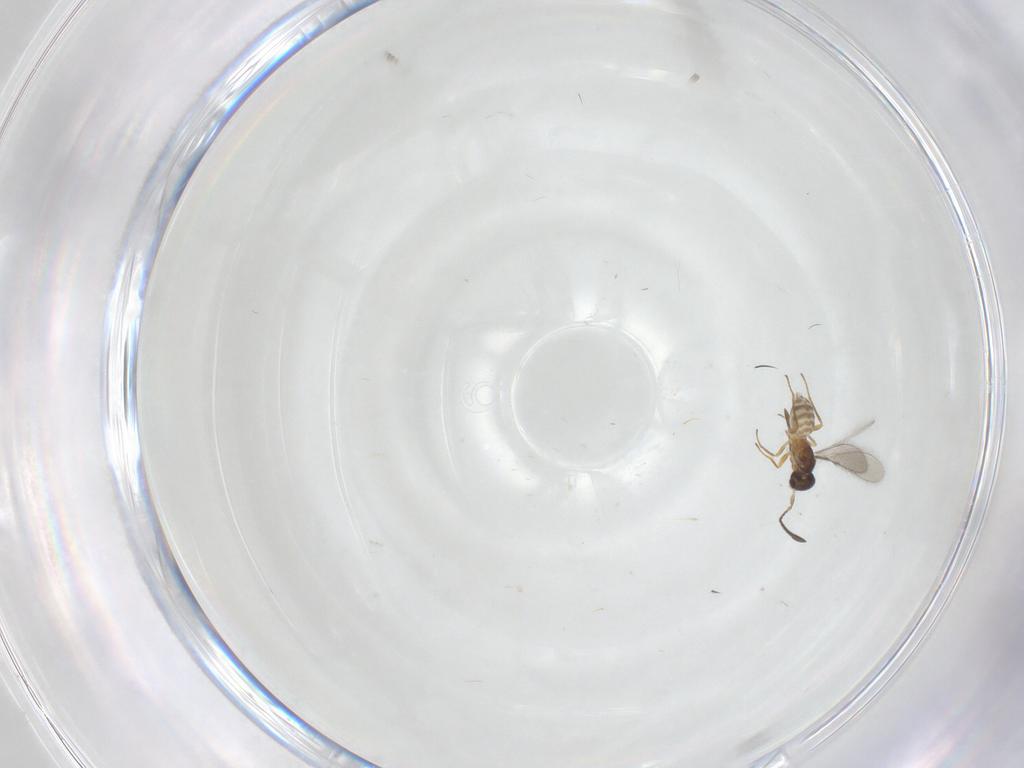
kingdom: Animalia
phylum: Arthropoda
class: Insecta
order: Hymenoptera
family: Mymaridae
